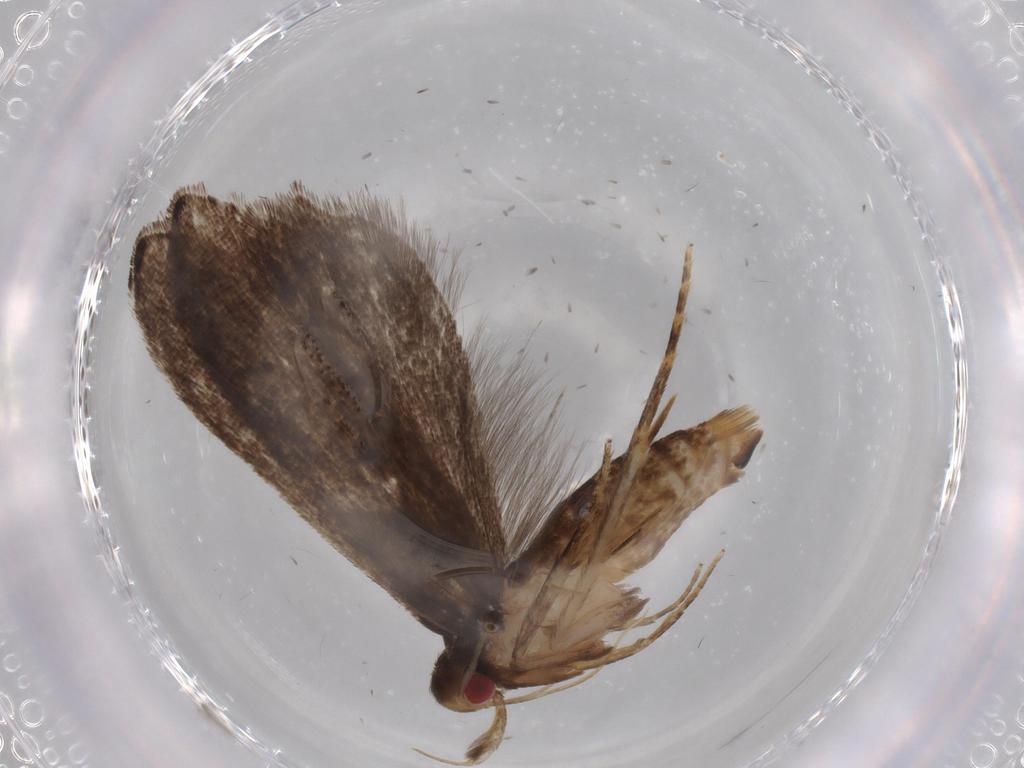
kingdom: Animalia
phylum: Arthropoda
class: Insecta
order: Lepidoptera
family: Gelechiidae
